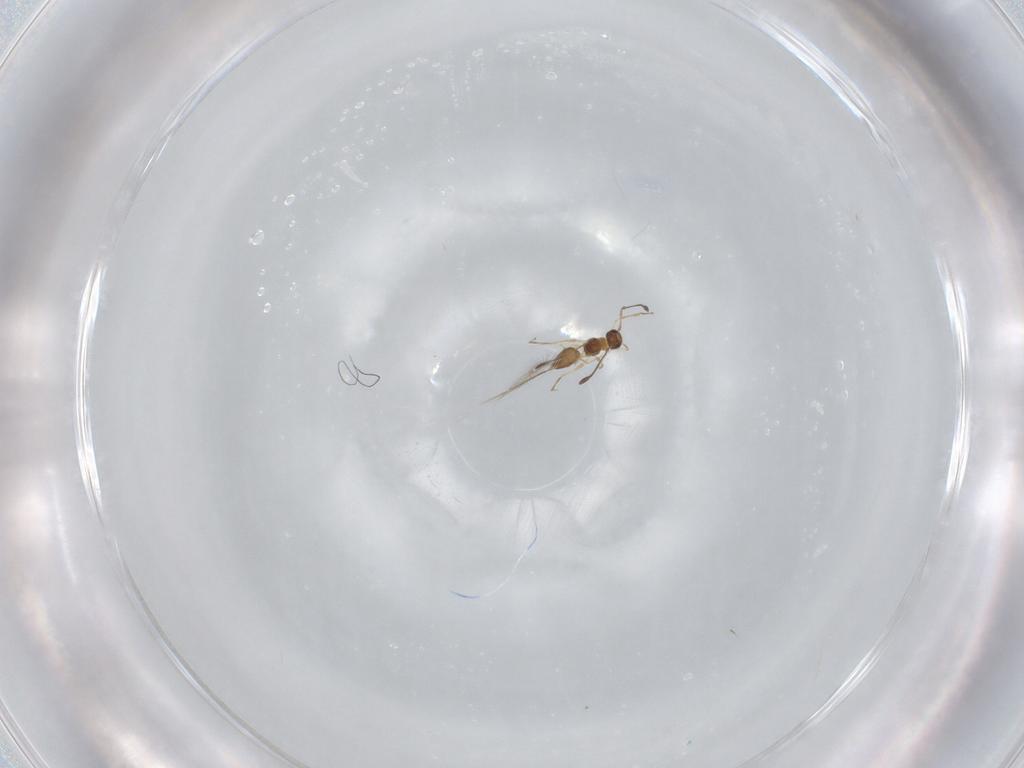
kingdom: Animalia
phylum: Arthropoda
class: Insecta
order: Hymenoptera
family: Mymaridae
